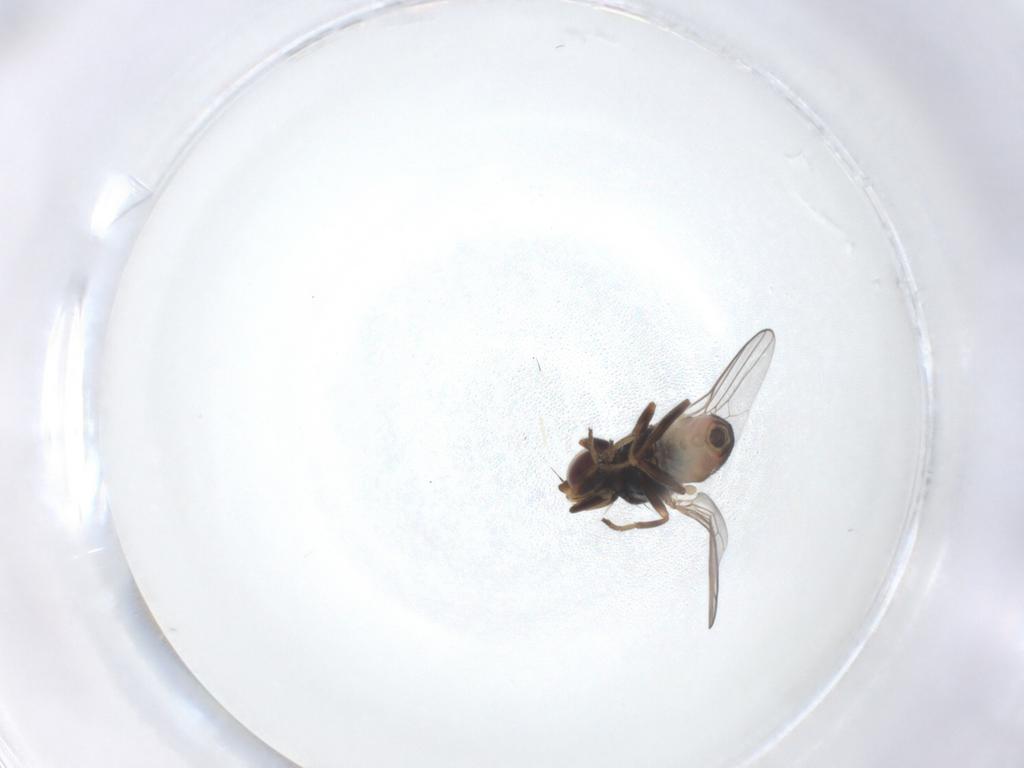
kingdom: Animalia
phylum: Arthropoda
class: Insecta
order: Diptera
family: Chloropidae
